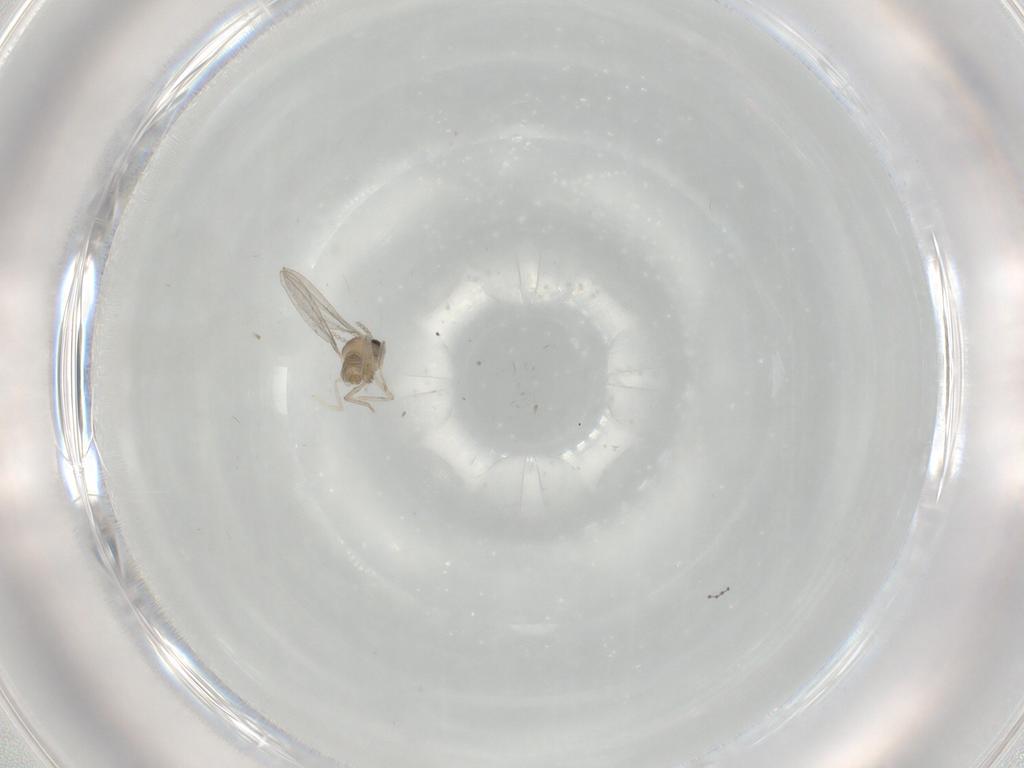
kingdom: Animalia
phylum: Arthropoda
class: Insecta
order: Diptera
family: Cecidomyiidae
